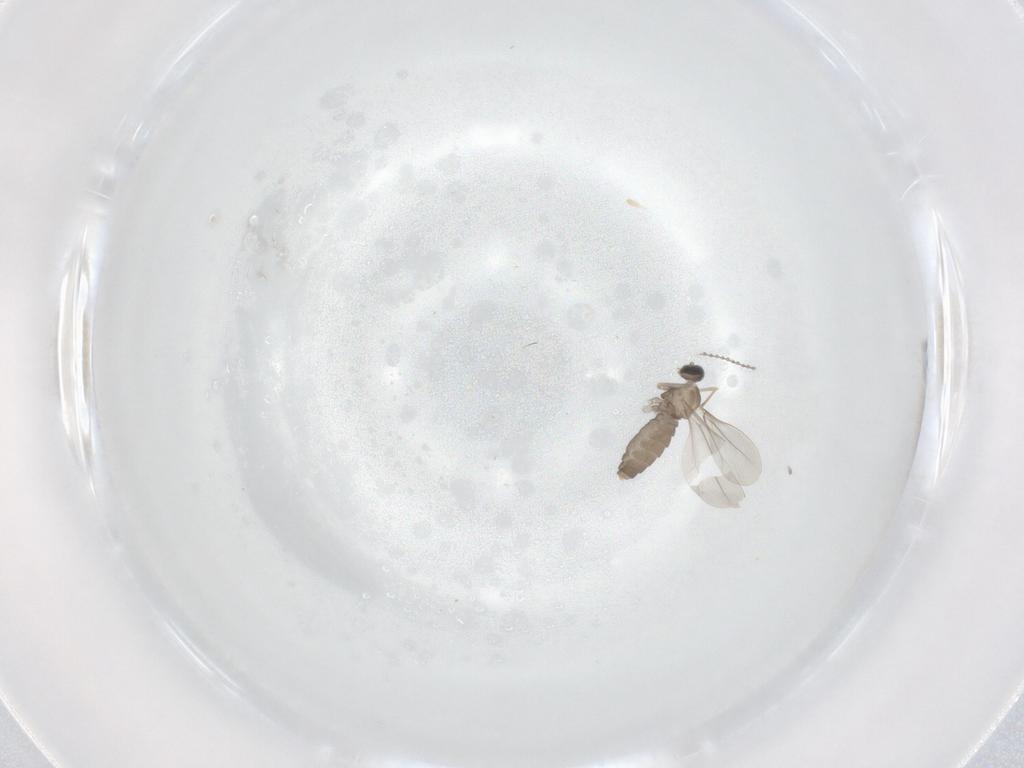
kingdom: Animalia
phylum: Arthropoda
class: Insecta
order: Diptera
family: Cecidomyiidae
